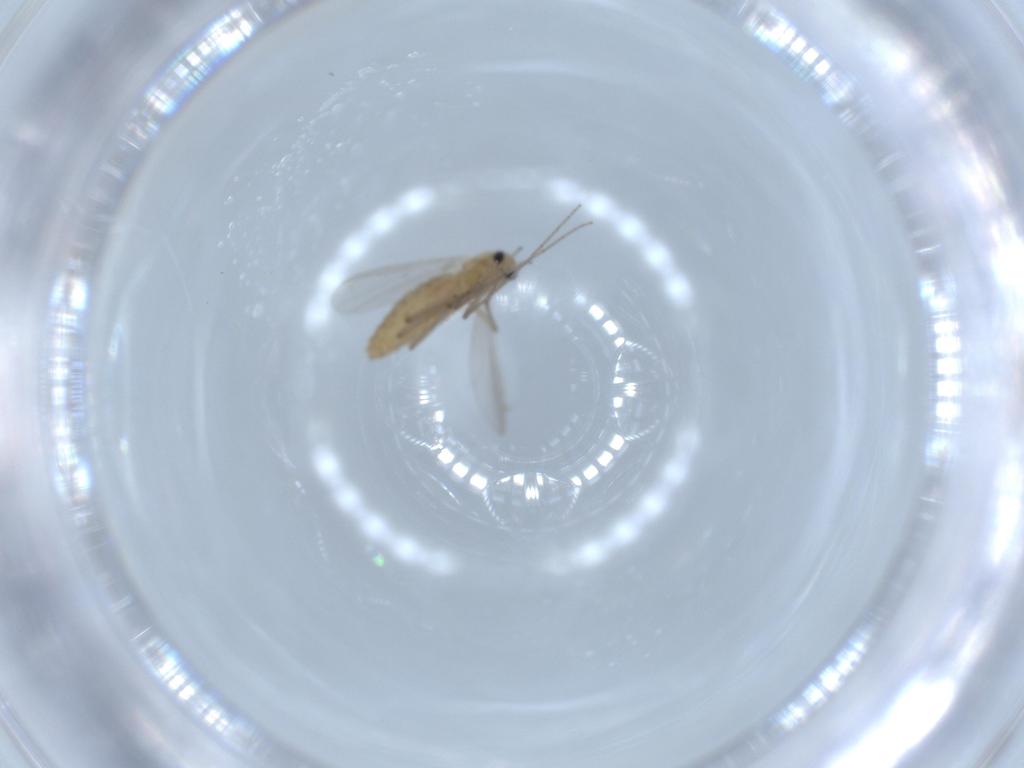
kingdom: Animalia
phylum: Arthropoda
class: Insecta
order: Diptera
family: Chironomidae
